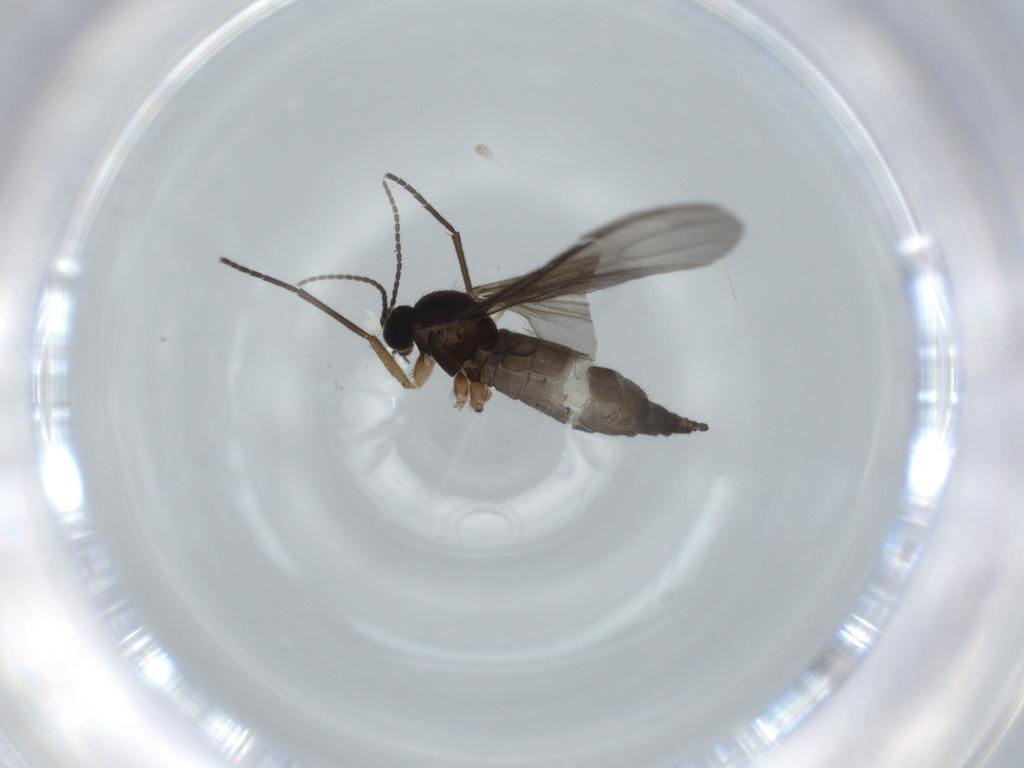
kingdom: Animalia
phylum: Arthropoda
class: Insecta
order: Diptera
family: Sciaridae
